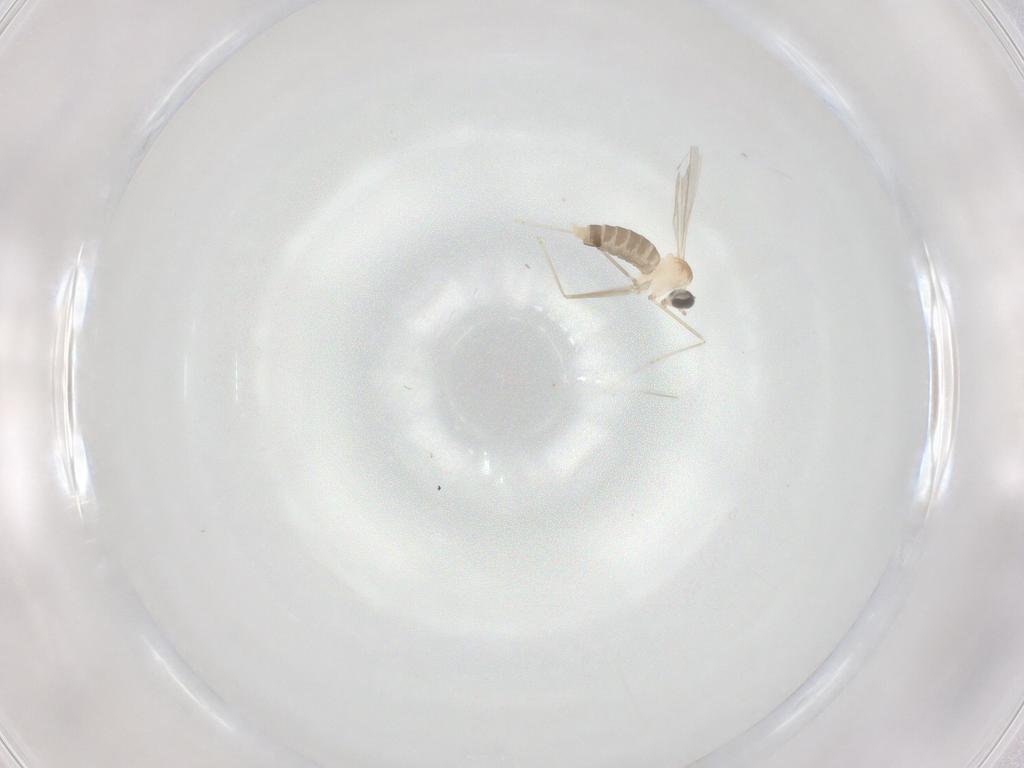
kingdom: Animalia
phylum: Arthropoda
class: Insecta
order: Diptera
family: Cecidomyiidae
